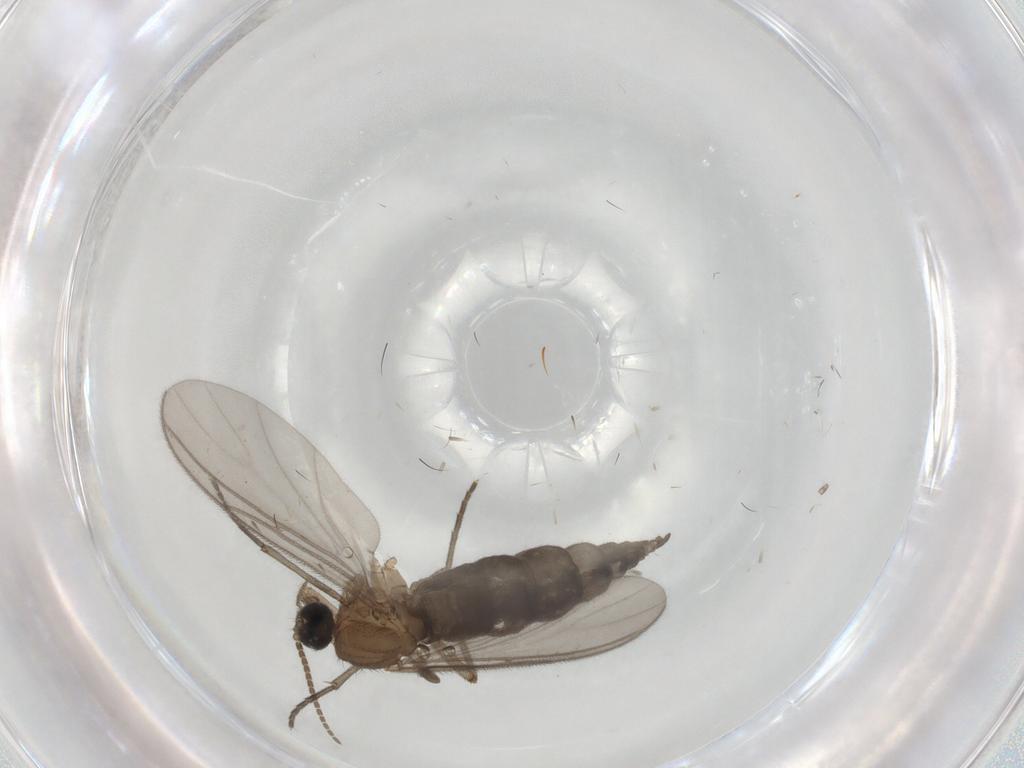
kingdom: Animalia
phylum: Arthropoda
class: Insecta
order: Diptera
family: Sciaridae
